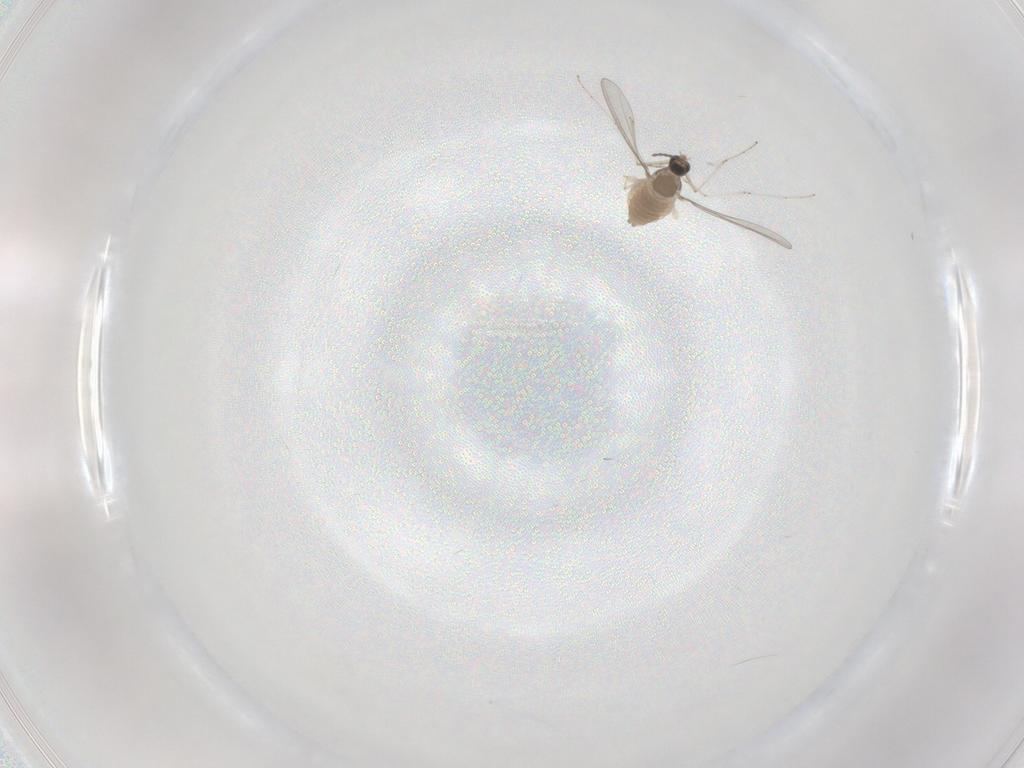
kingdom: Animalia
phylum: Arthropoda
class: Insecta
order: Diptera
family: Cecidomyiidae
